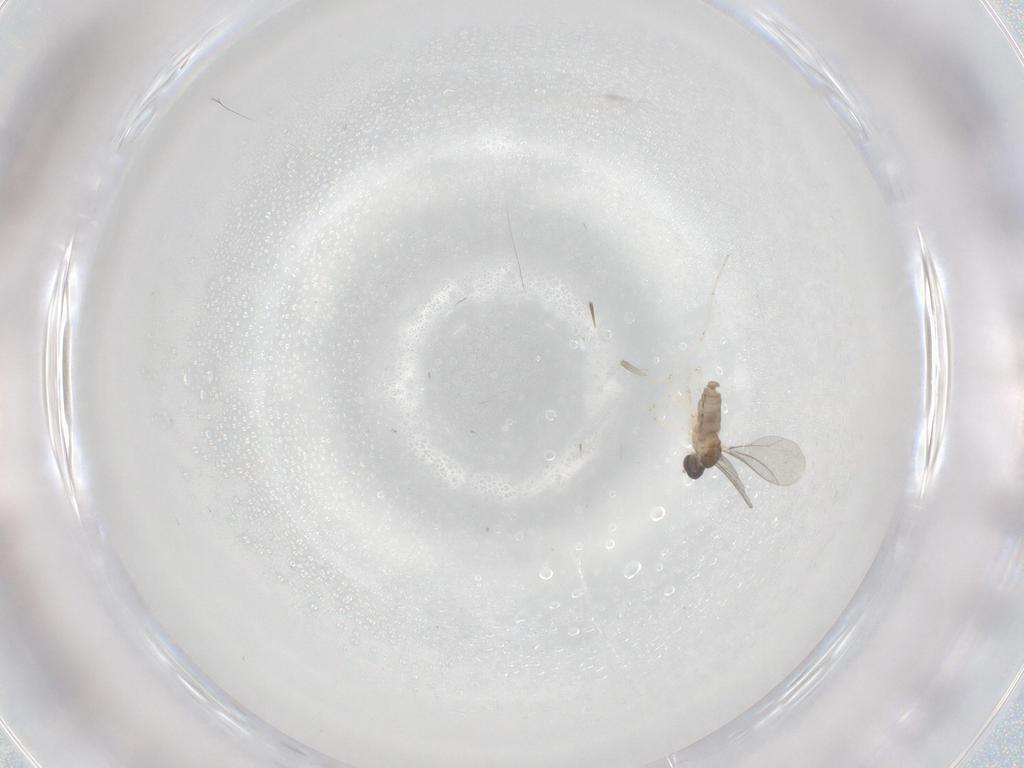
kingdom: Animalia
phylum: Arthropoda
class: Insecta
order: Diptera
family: Cecidomyiidae
